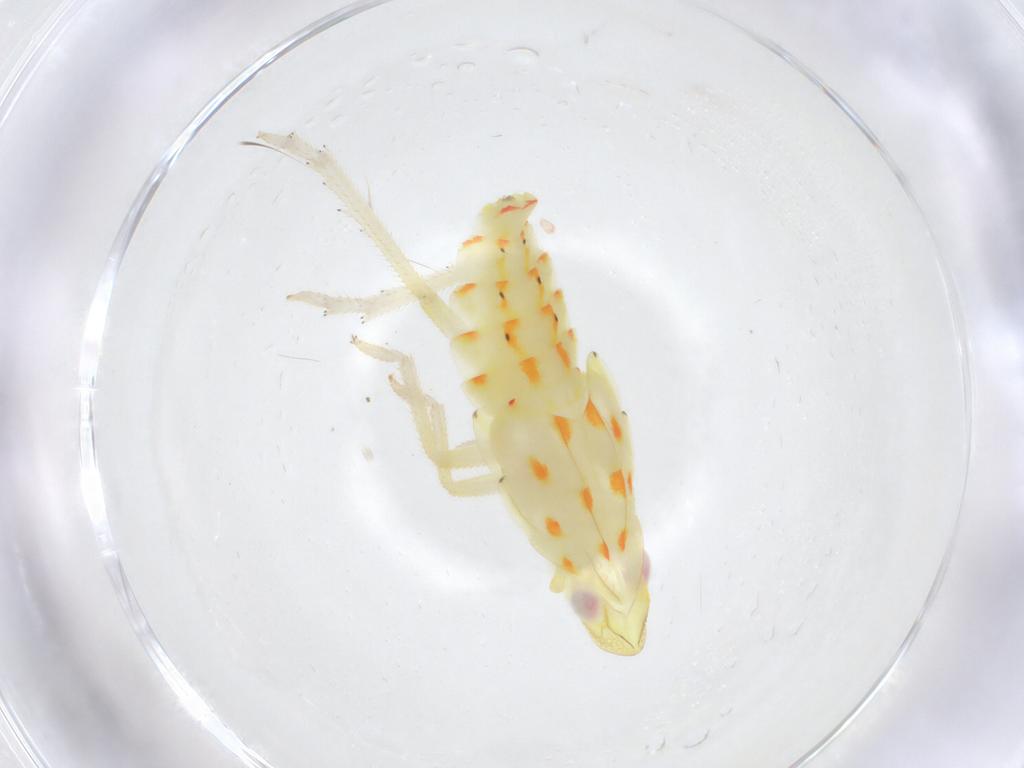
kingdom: Animalia
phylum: Arthropoda
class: Insecta
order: Hemiptera
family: Tropiduchidae
